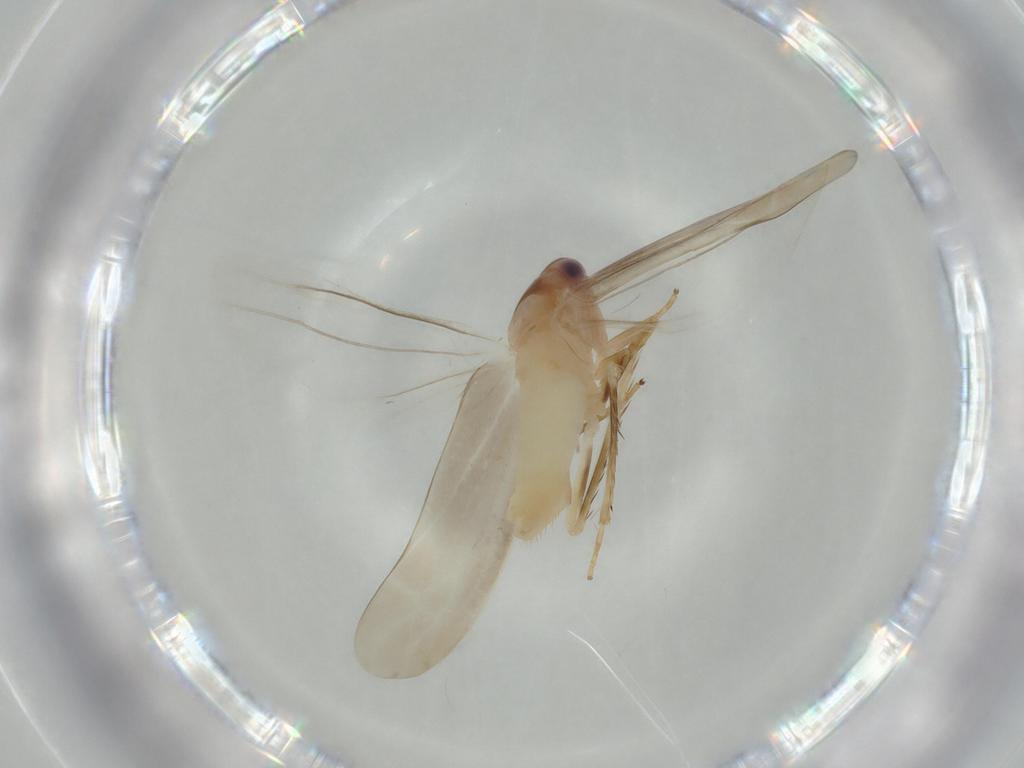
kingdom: Animalia
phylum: Arthropoda
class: Insecta
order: Hemiptera
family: Cicadellidae
